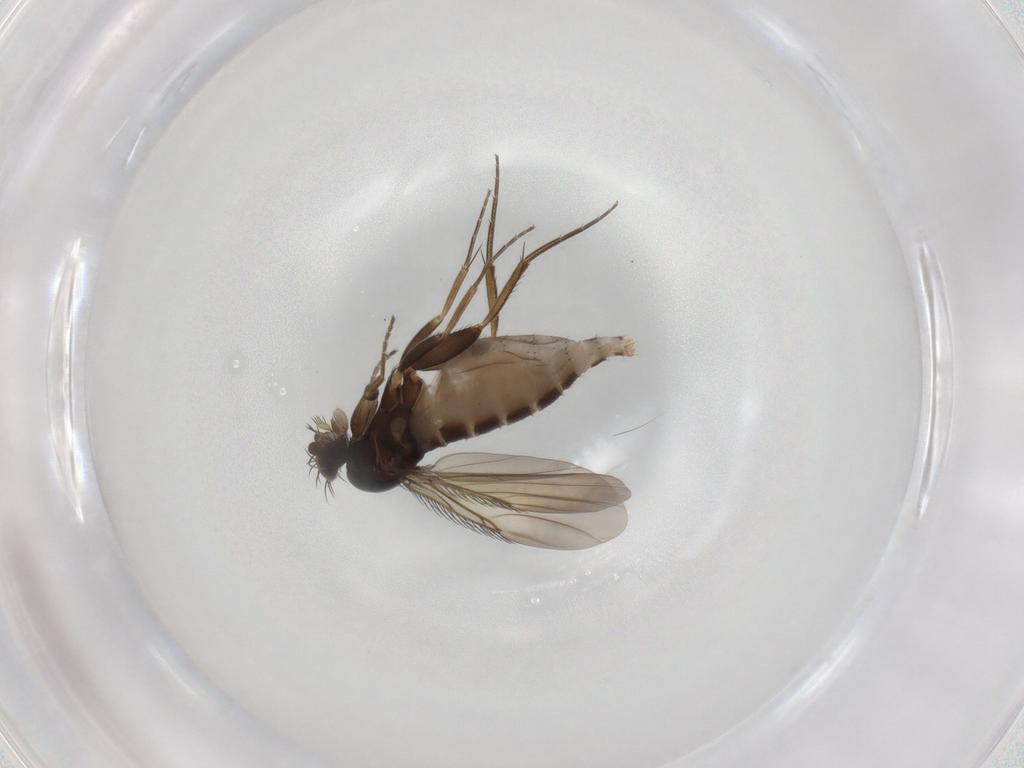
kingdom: Animalia
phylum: Arthropoda
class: Insecta
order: Diptera
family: Phoridae
